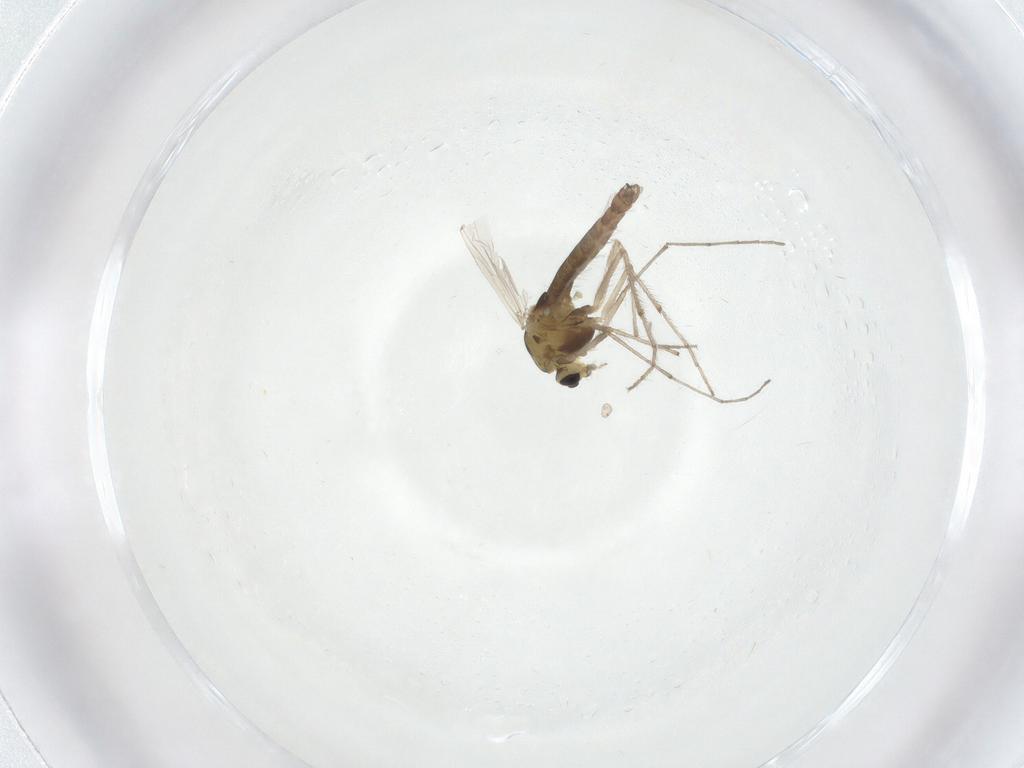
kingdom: Animalia
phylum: Arthropoda
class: Insecta
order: Diptera
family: Chironomidae
